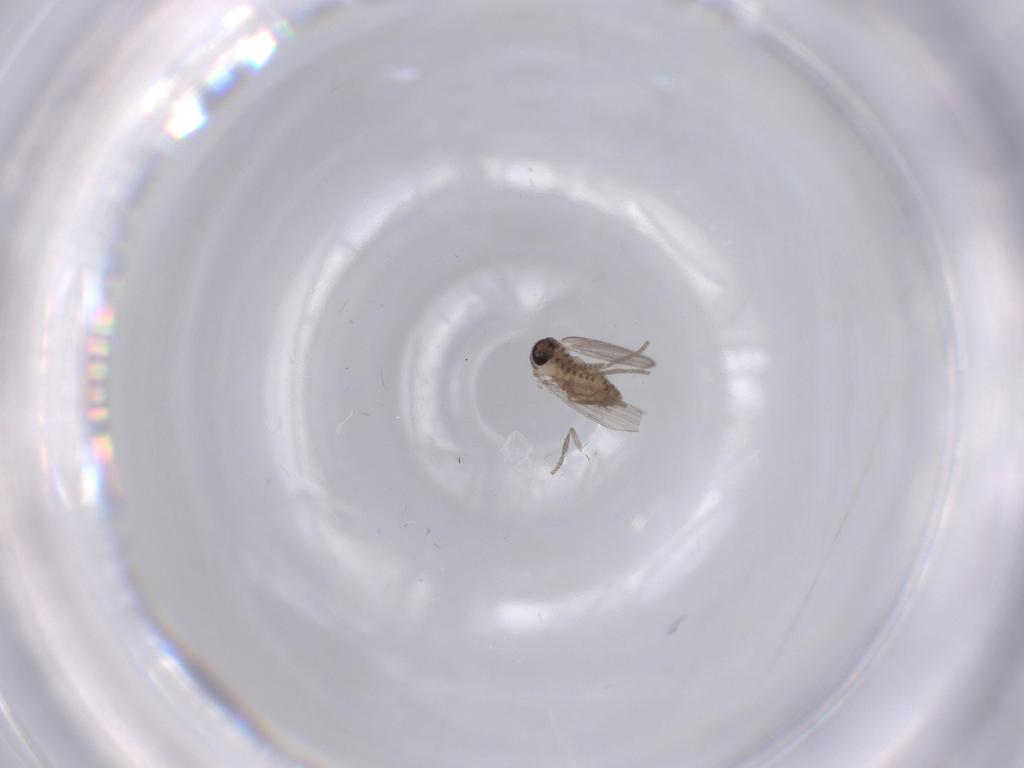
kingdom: Animalia
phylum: Arthropoda
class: Insecta
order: Diptera
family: Psychodidae
